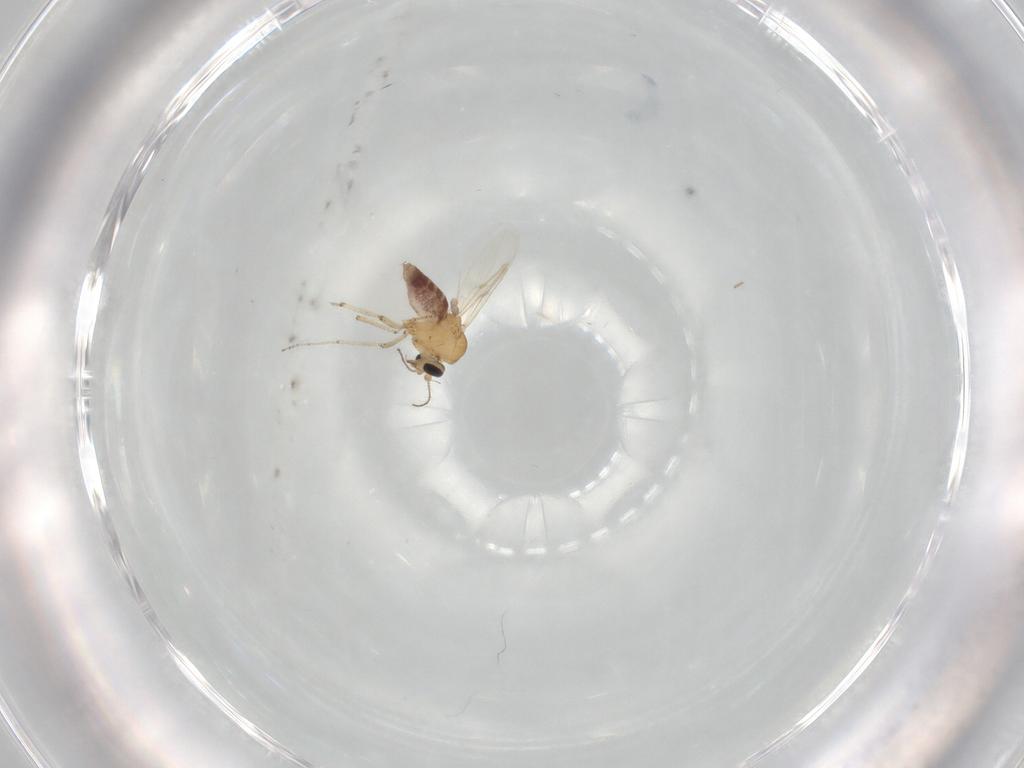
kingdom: Animalia
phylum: Arthropoda
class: Insecta
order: Diptera
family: Ceratopogonidae
